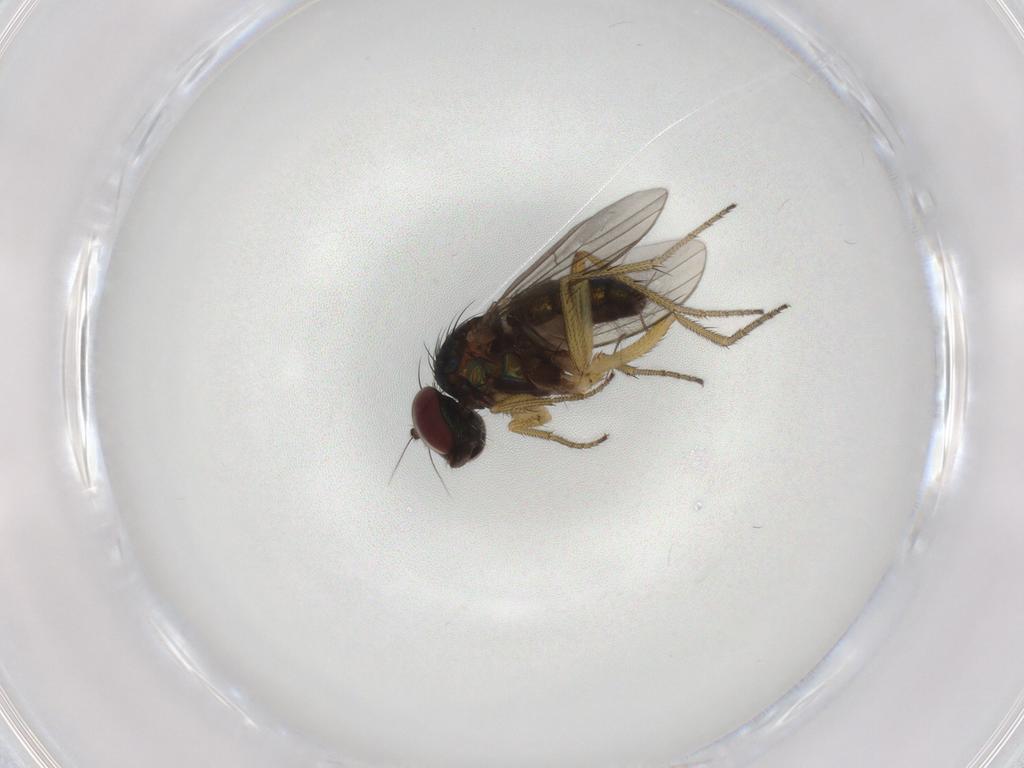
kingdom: Animalia
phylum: Arthropoda
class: Insecta
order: Diptera
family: Chironomidae
